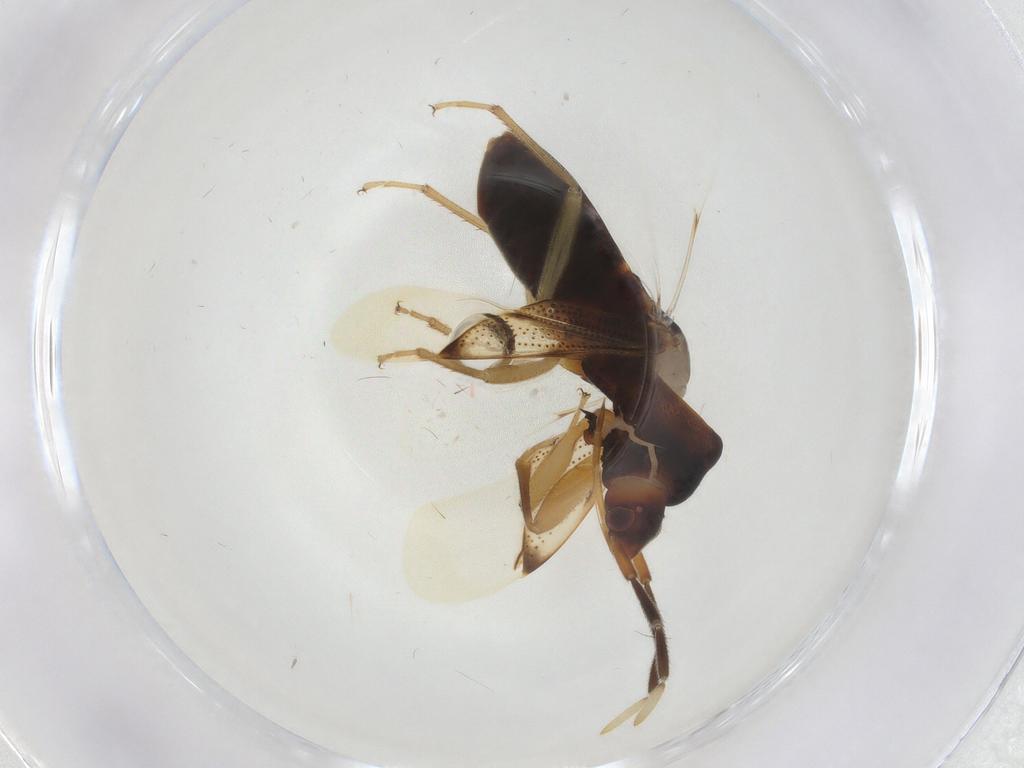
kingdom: Animalia
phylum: Arthropoda
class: Insecta
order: Hemiptera
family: Rhyparochromidae
